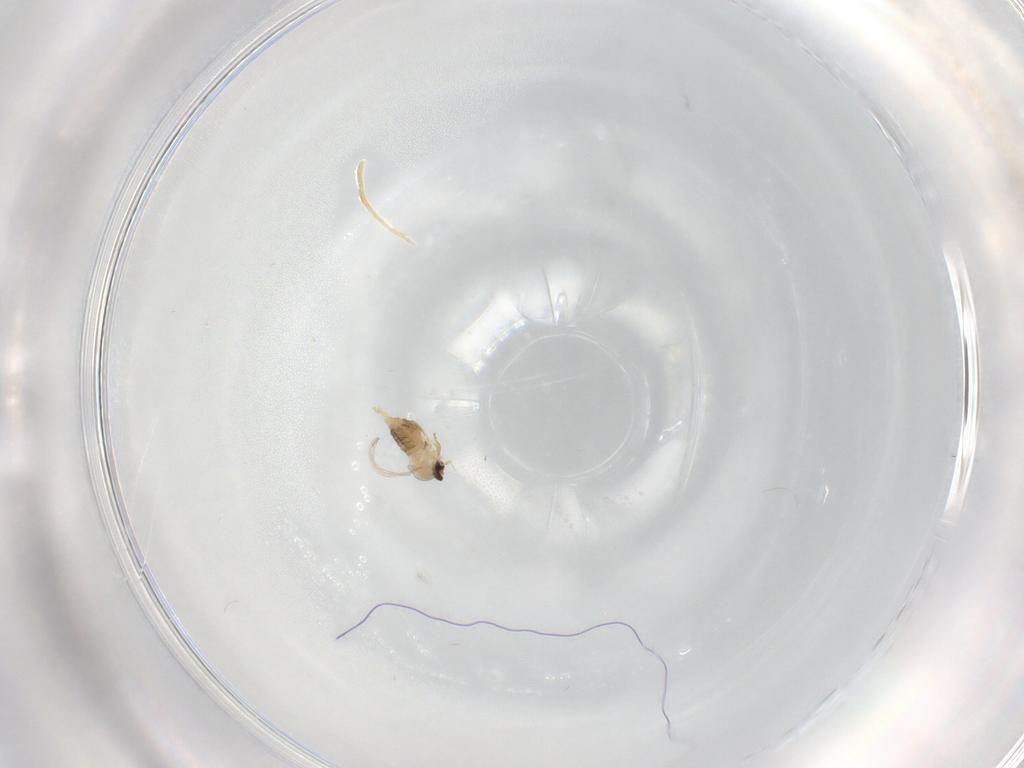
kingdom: Animalia
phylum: Arthropoda
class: Insecta
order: Diptera
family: Cecidomyiidae
